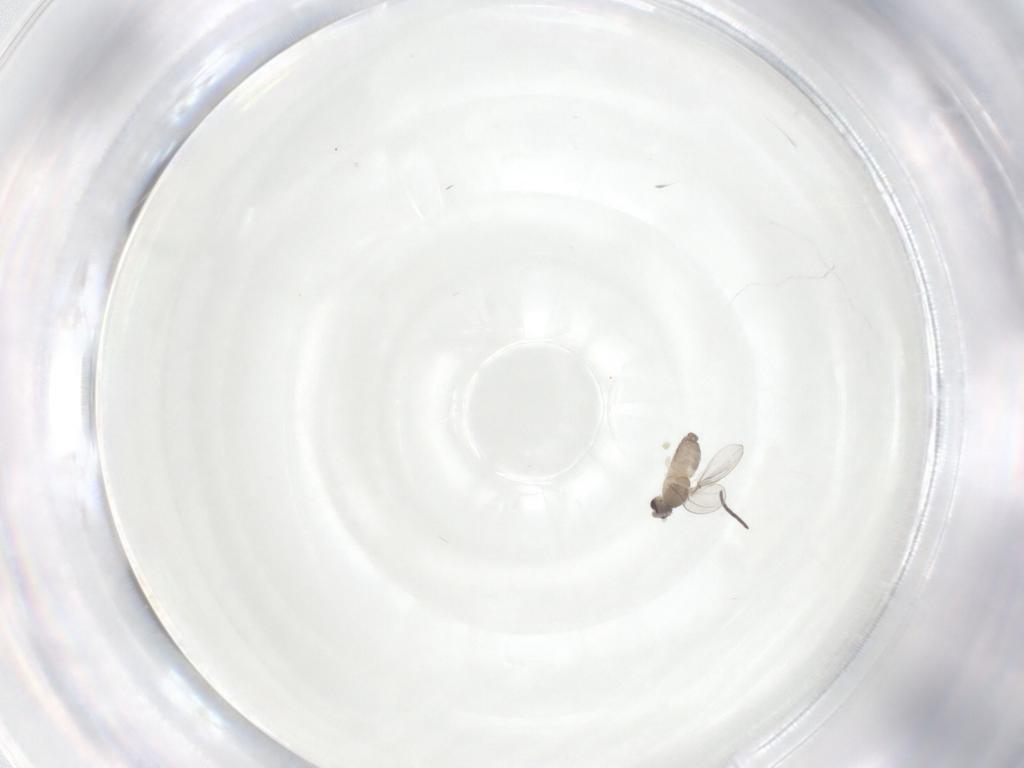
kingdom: Animalia
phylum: Arthropoda
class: Insecta
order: Diptera
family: Cecidomyiidae
